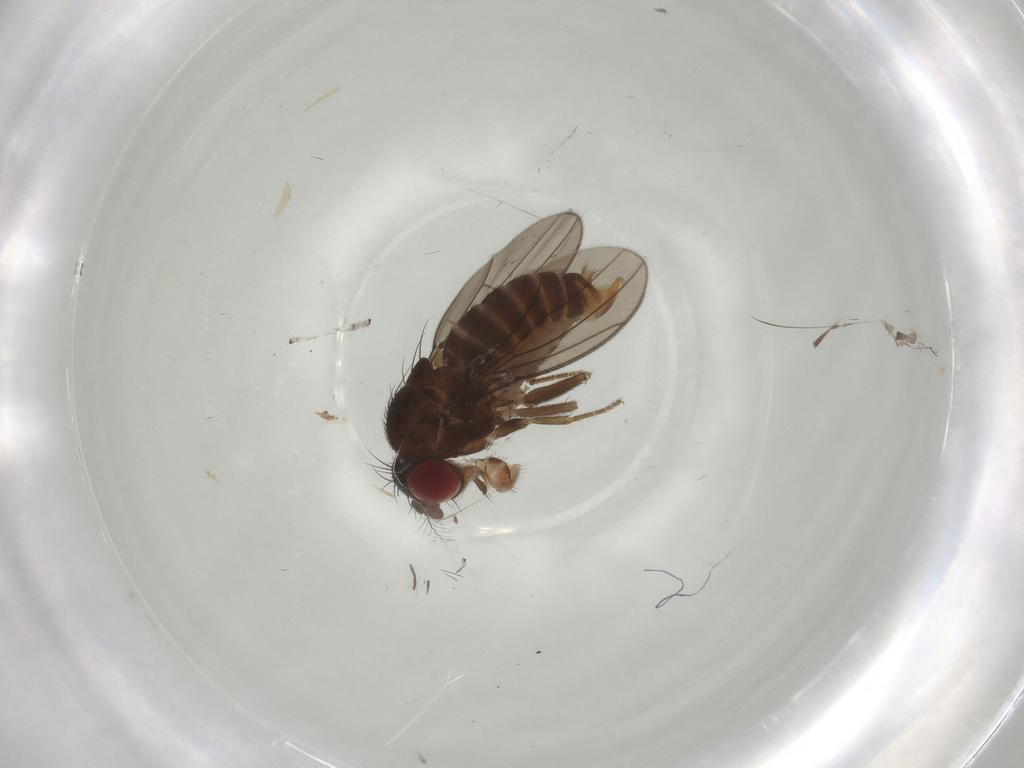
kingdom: Animalia
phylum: Arthropoda
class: Insecta
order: Diptera
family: Drosophilidae
